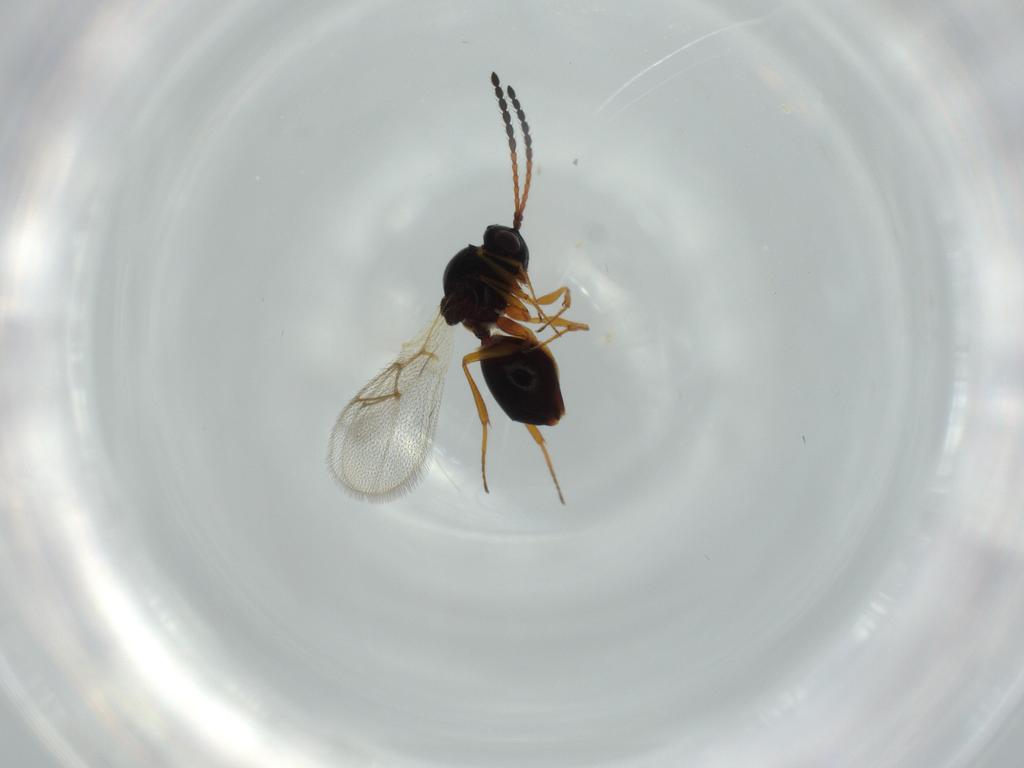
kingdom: Animalia
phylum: Arthropoda
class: Insecta
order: Hymenoptera
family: Figitidae
